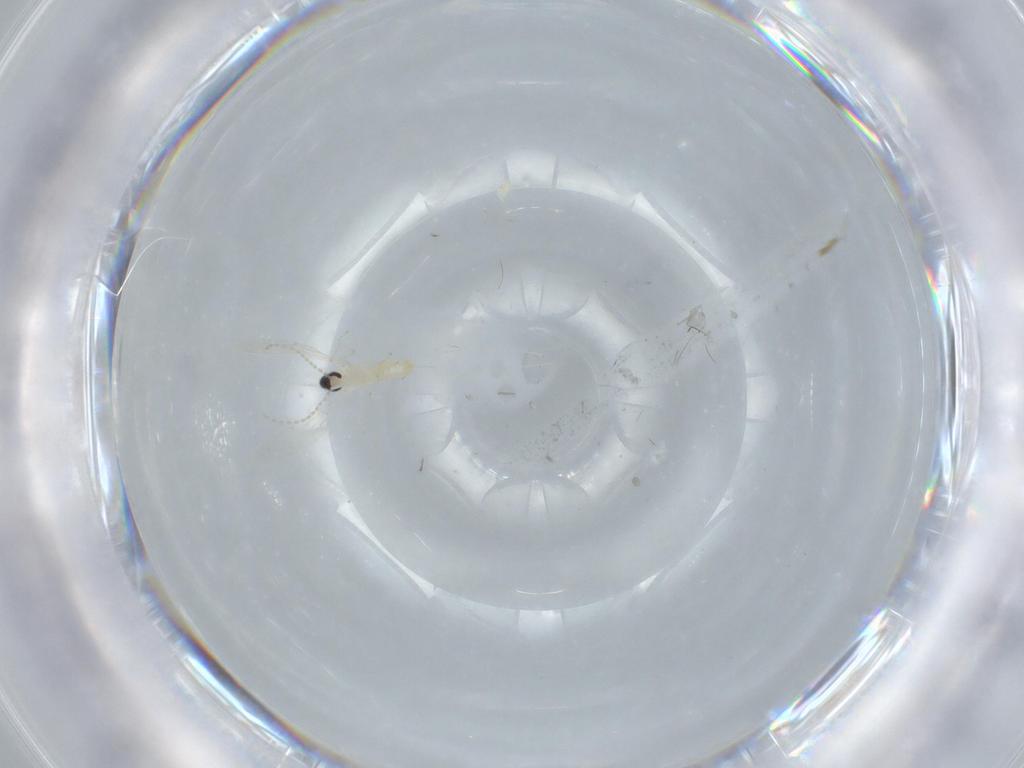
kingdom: Animalia
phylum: Arthropoda
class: Insecta
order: Diptera
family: Cecidomyiidae
